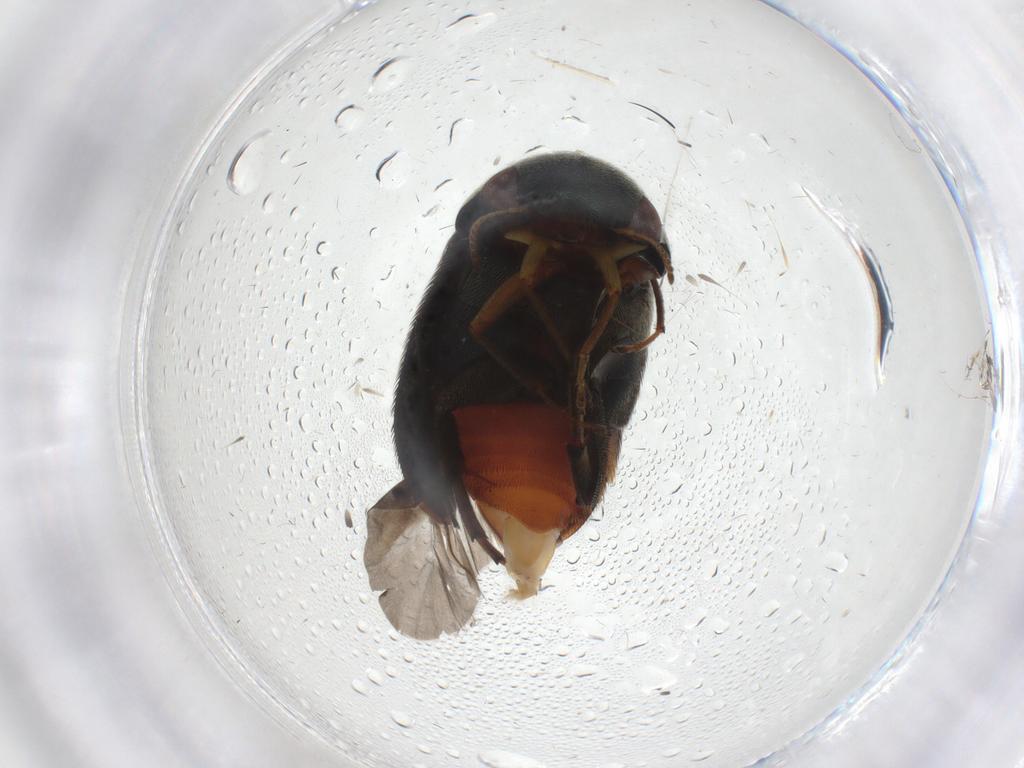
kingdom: Animalia
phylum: Arthropoda
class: Insecta
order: Coleoptera
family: Mordellidae
